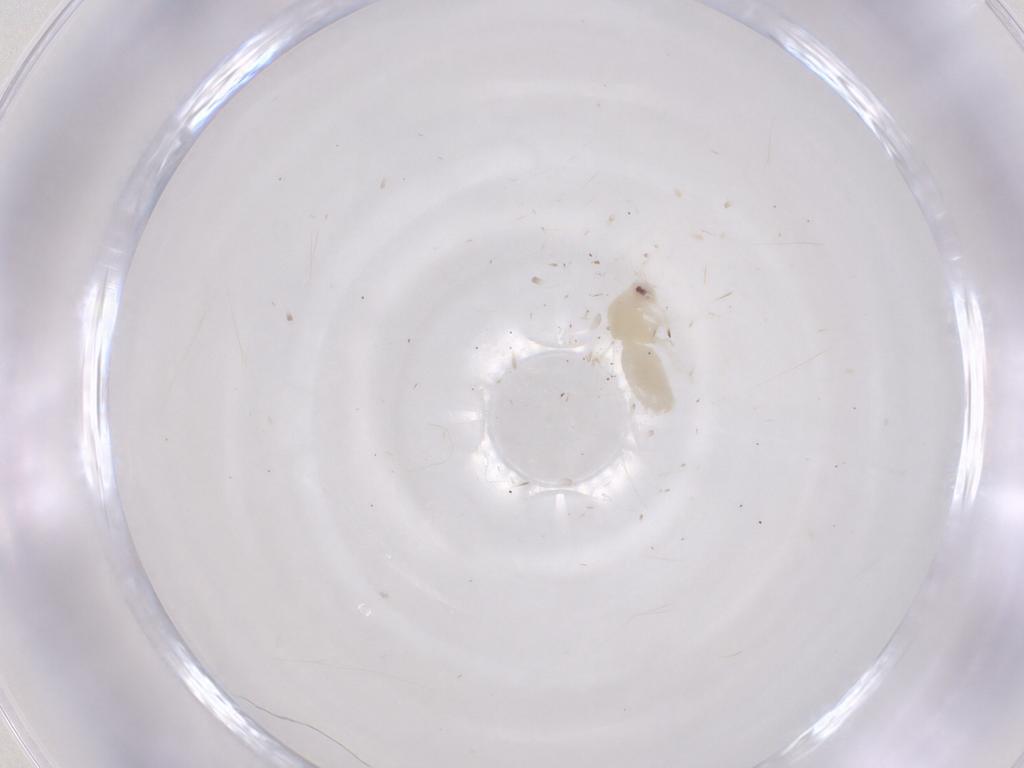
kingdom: Animalia
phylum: Arthropoda
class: Insecta
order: Hemiptera
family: Aleyrodidae
